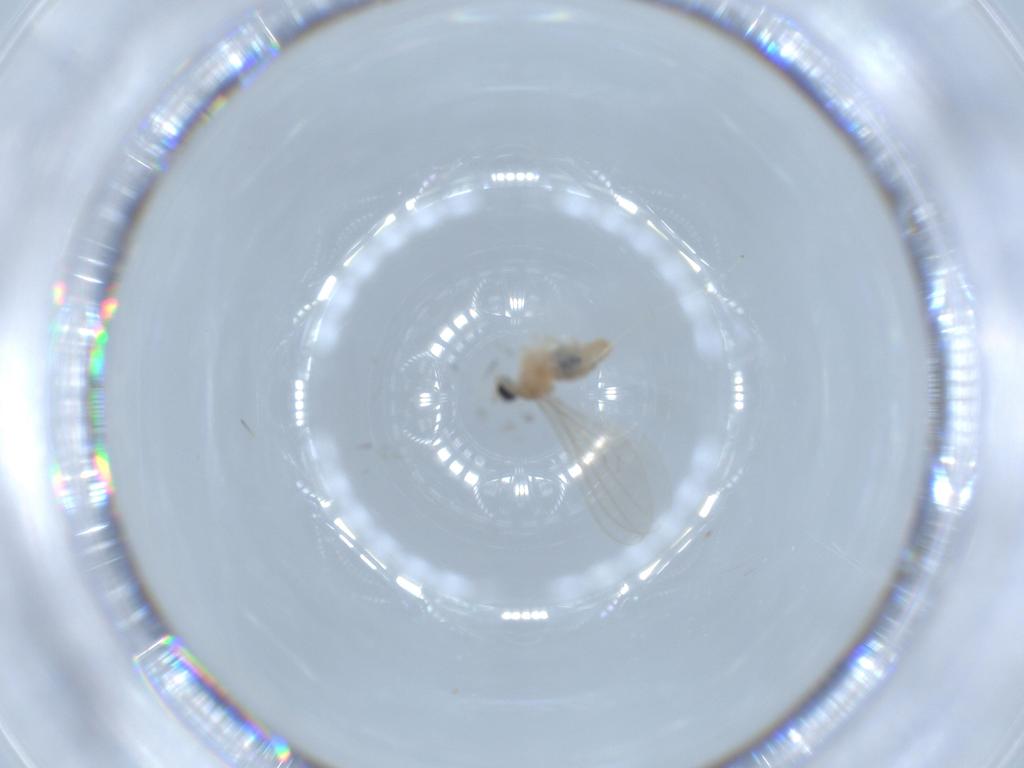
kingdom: Animalia
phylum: Arthropoda
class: Insecta
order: Diptera
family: Cecidomyiidae
